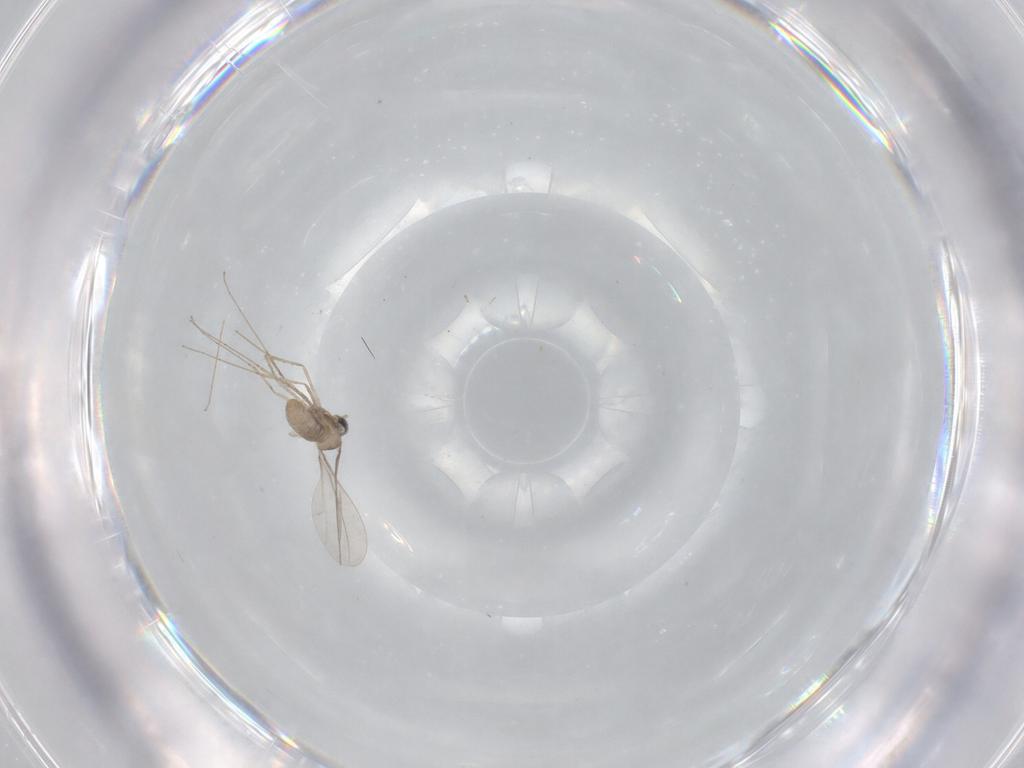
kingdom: Animalia
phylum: Arthropoda
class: Insecta
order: Diptera
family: Cecidomyiidae
